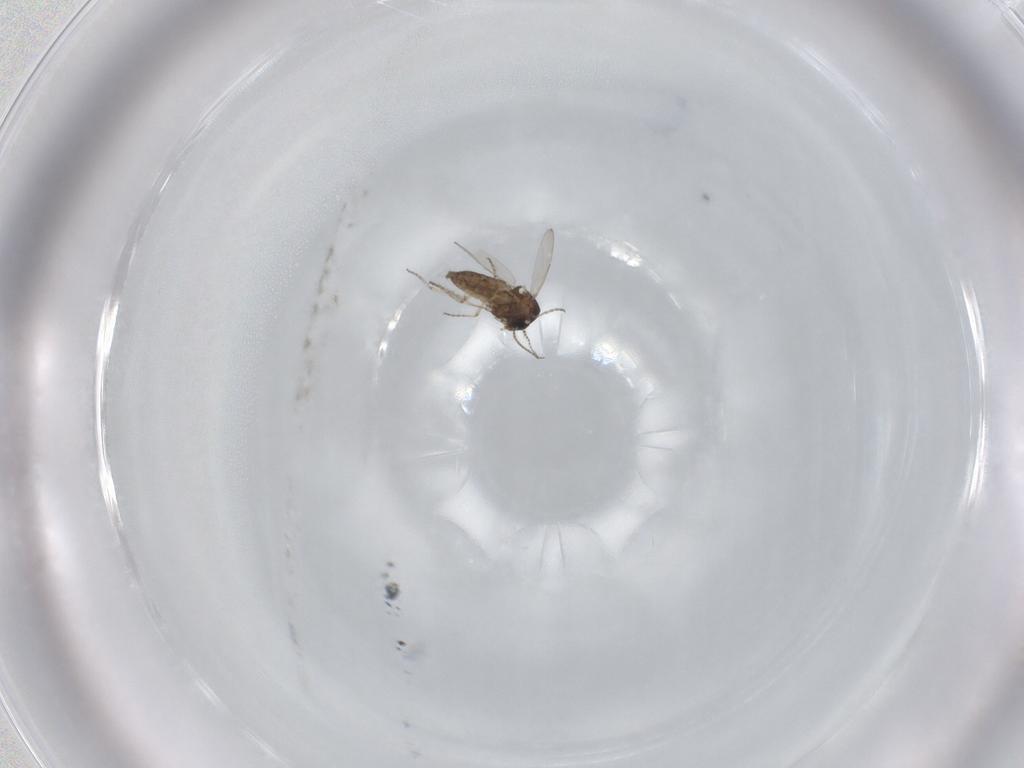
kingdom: Animalia
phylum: Arthropoda
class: Insecta
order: Diptera
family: Ceratopogonidae
